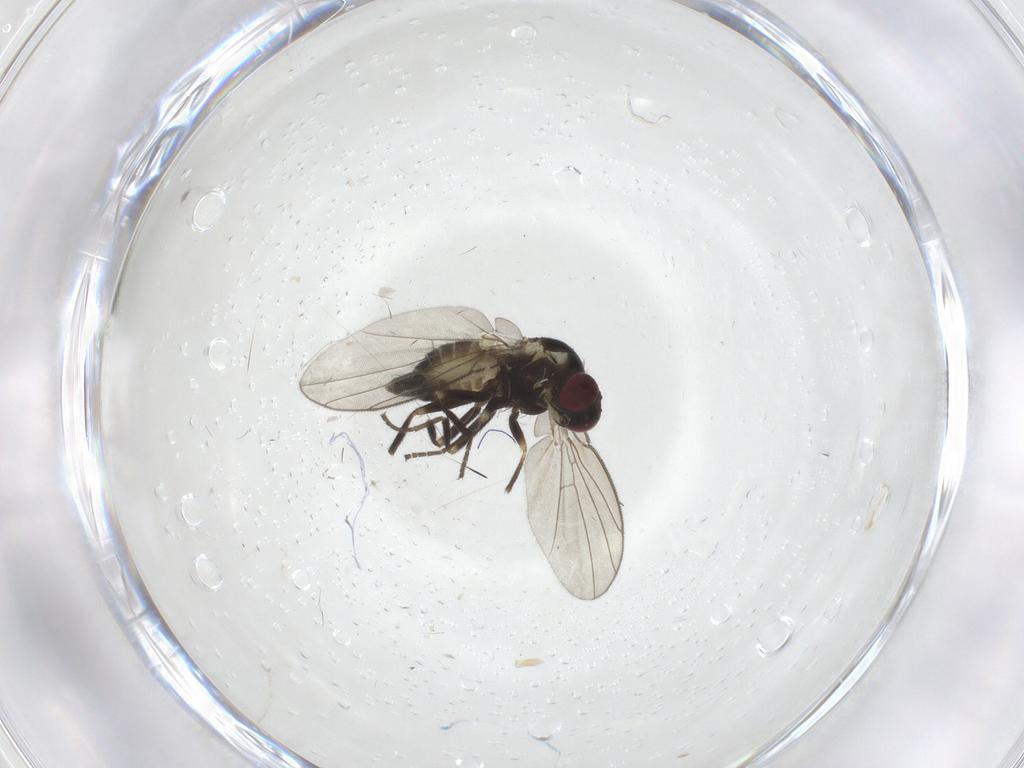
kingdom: Animalia
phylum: Arthropoda
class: Insecta
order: Diptera
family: Agromyzidae
